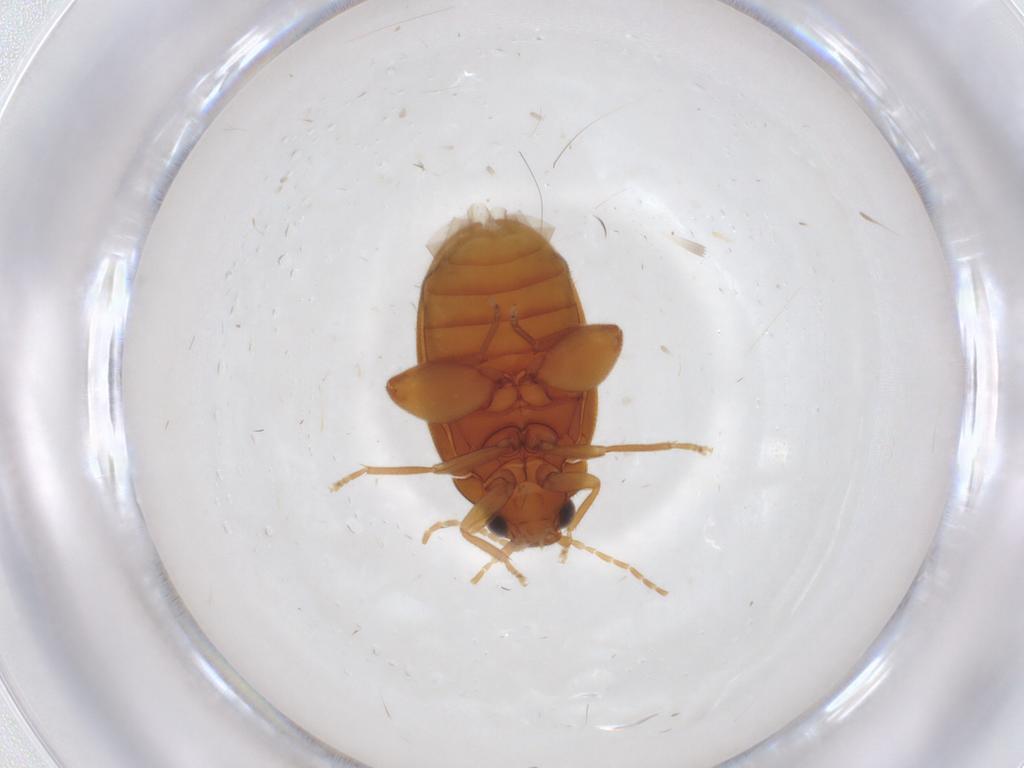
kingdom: Animalia
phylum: Arthropoda
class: Insecta
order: Coleoptera
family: Scirtidae
